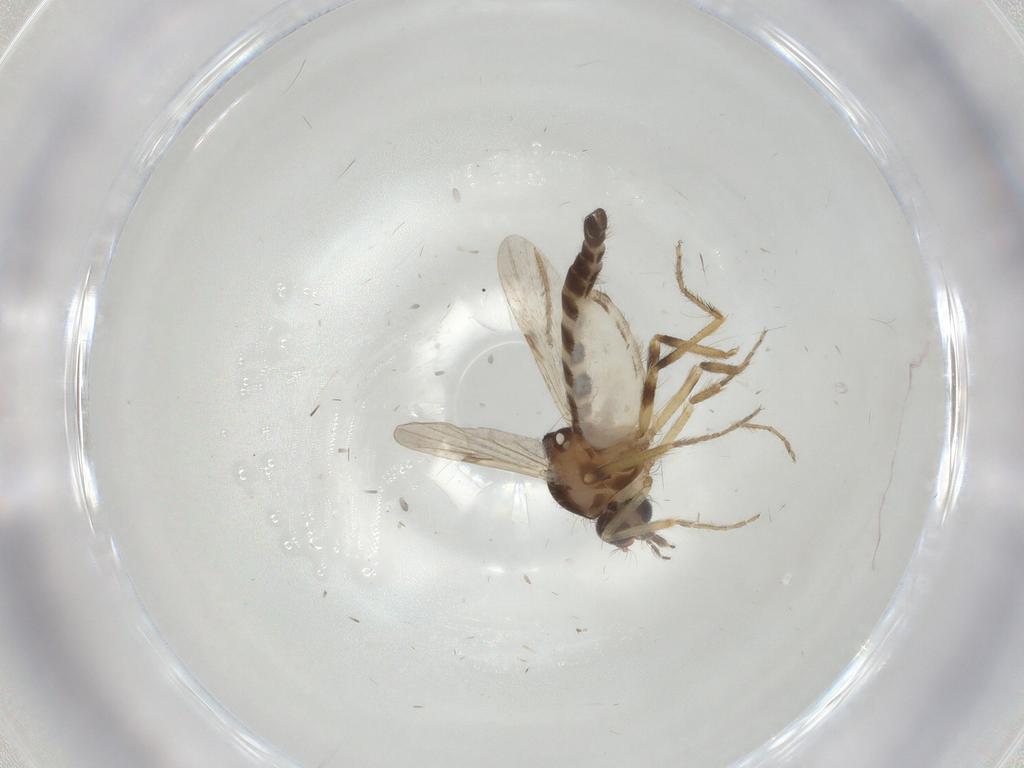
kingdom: Animalia
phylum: Arthropoda
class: Insecta
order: Diptera
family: Ceratopogonidae
